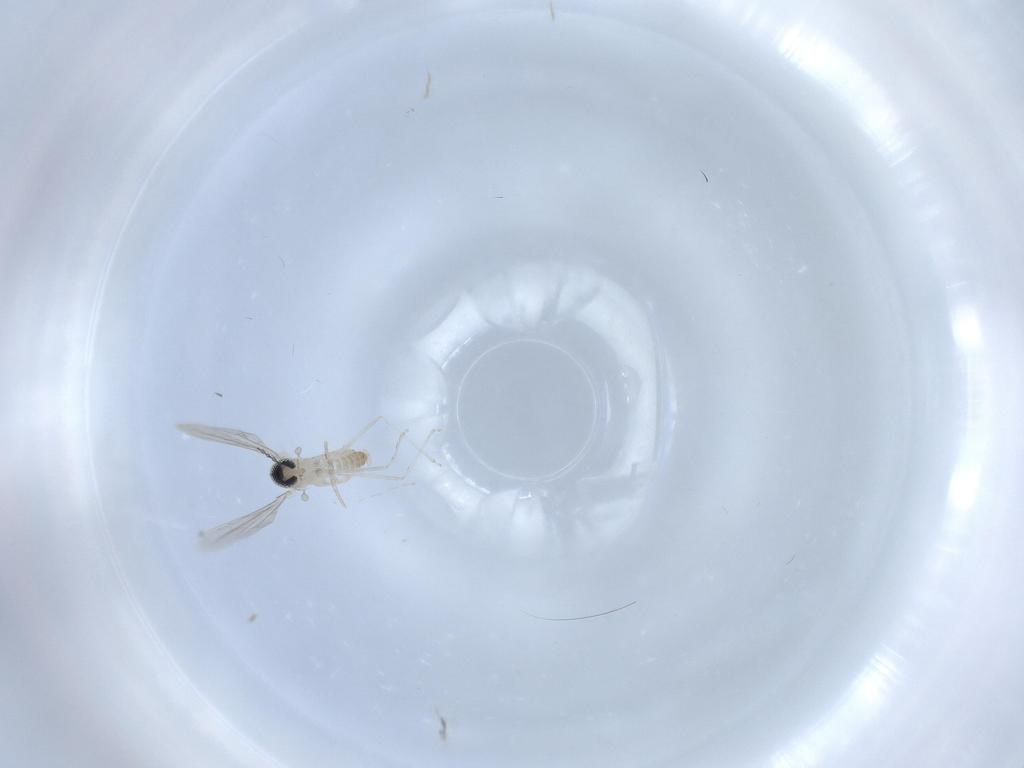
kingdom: Animalia
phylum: Arthropoda
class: Insecta
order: Diptera
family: Cecidomyiidae
